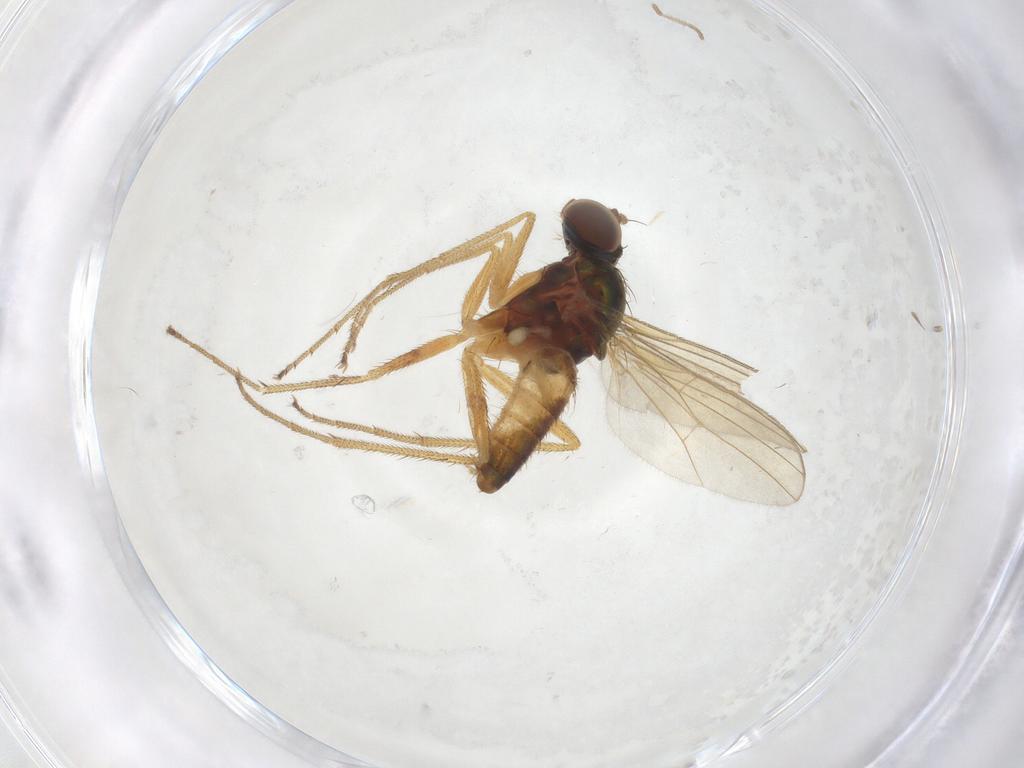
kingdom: Animalia
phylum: Arthropoda
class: Insecta
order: Diptera
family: Dolichopodidae
